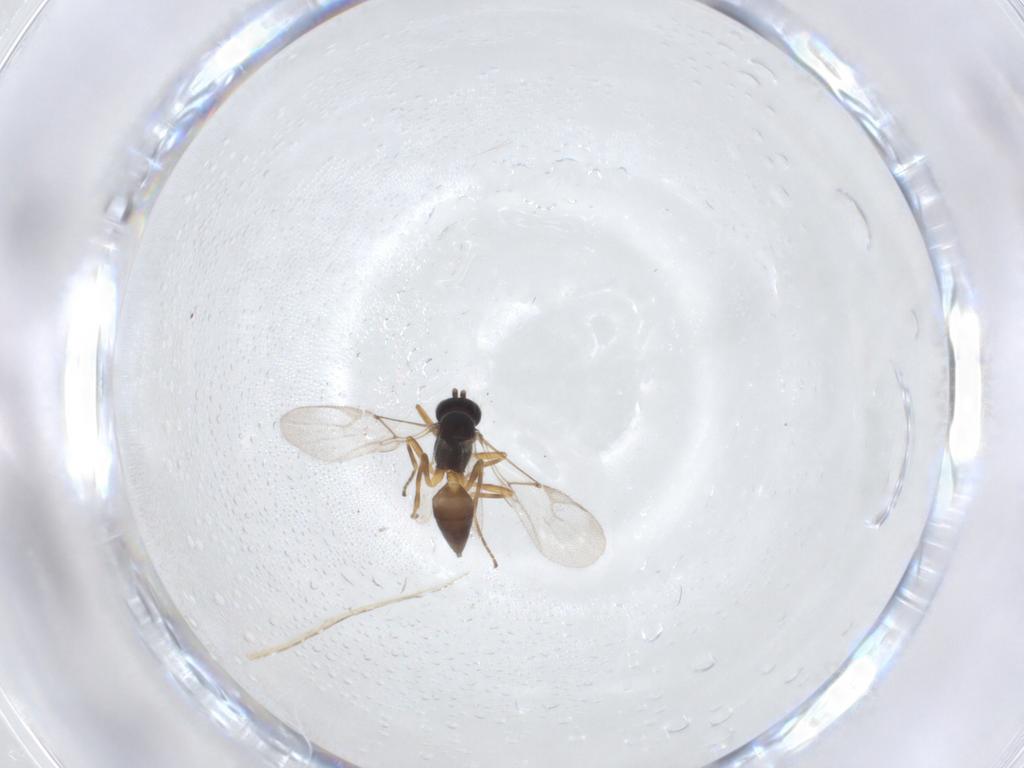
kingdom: Animalia
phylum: Arthropoda
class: Insecta
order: Hymenoptera
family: Braconidae
